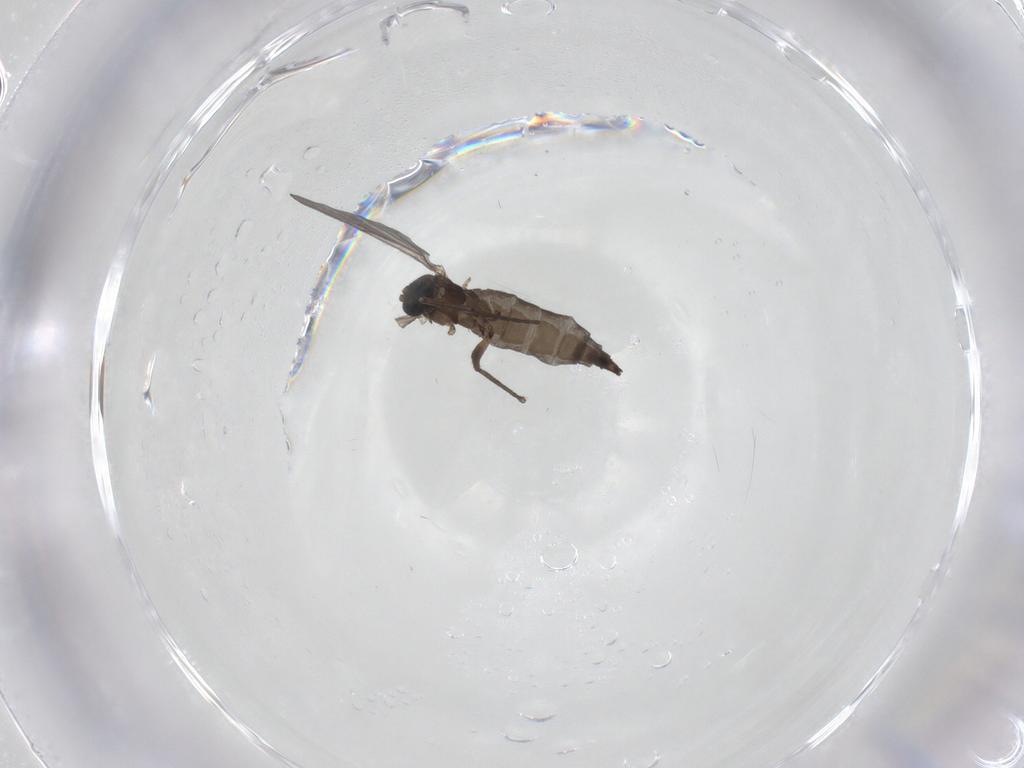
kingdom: Animalia
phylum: Arthropoda
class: Insecta
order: Diptera
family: Sciaridae
